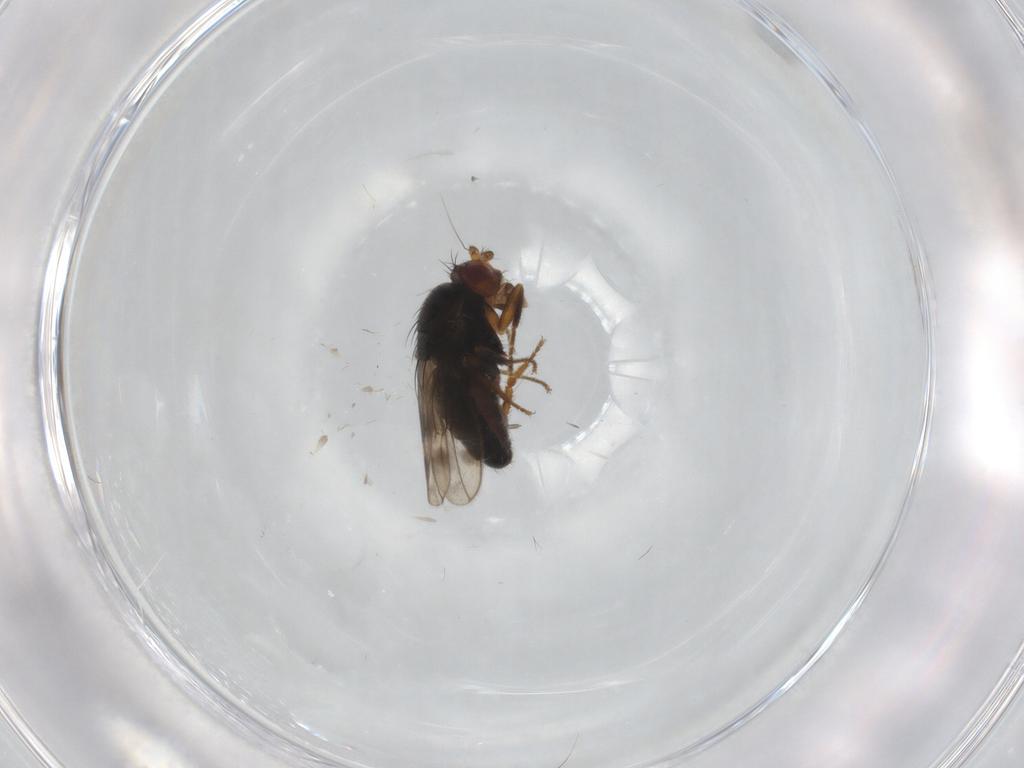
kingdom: Animalia
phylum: Arthropoda
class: Insecta
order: Diptera
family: Sphaeroceridae
